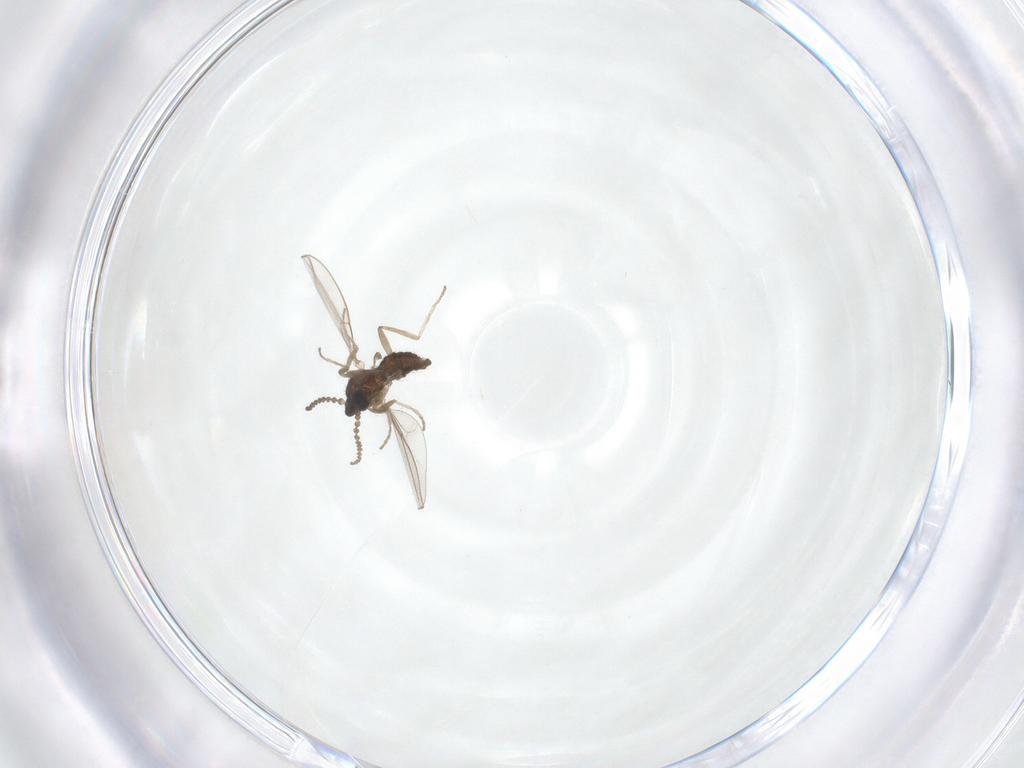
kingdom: Animalia
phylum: Arthropoda
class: Insecta
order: Diptera
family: Cecidomyiidae
